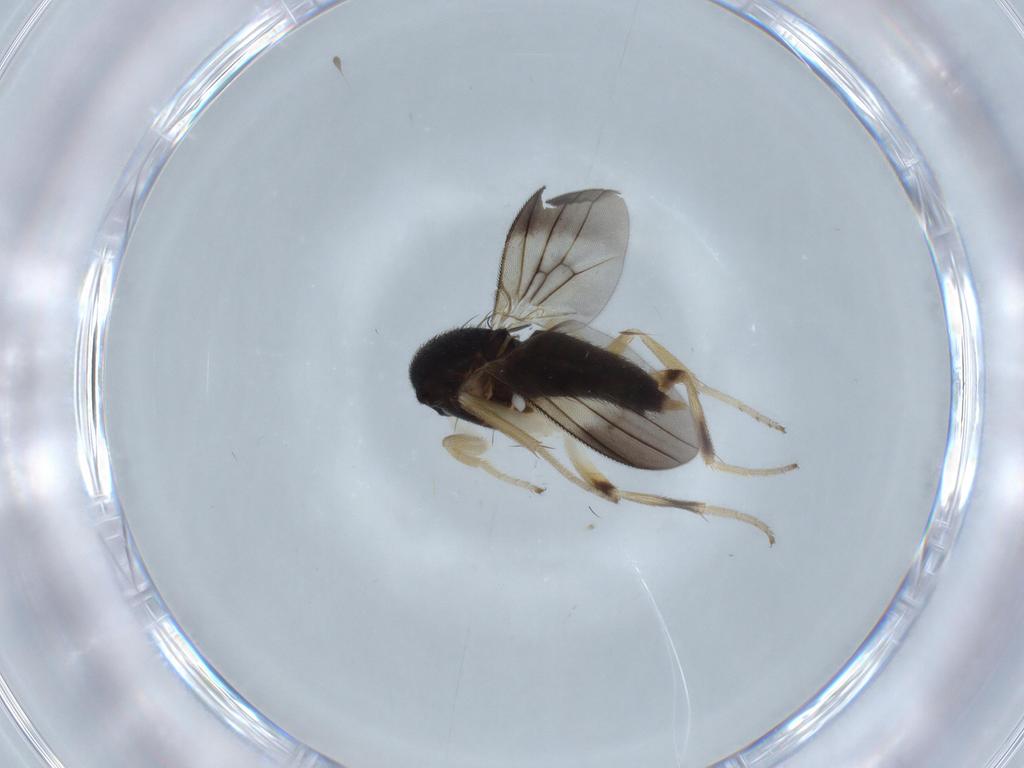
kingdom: Animalia
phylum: Arthropoda
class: Insecta
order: Diptera
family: Clusiidae
